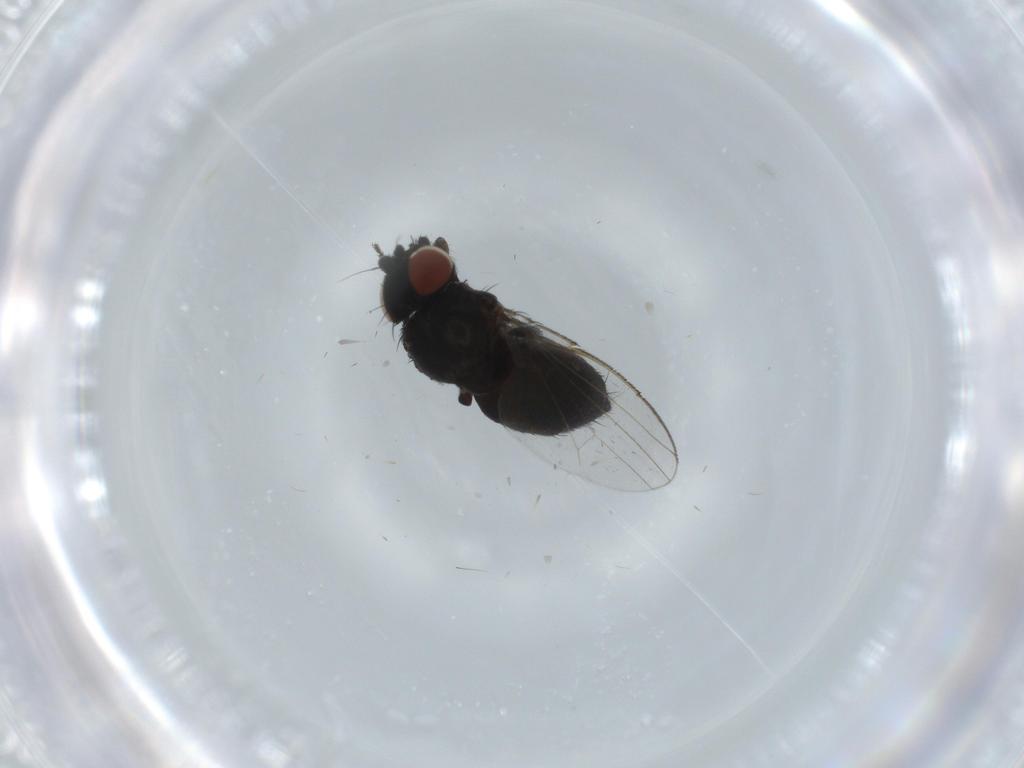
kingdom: Animalia
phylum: Arthropoda
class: Insecta
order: Diptera
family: Milichiidae
